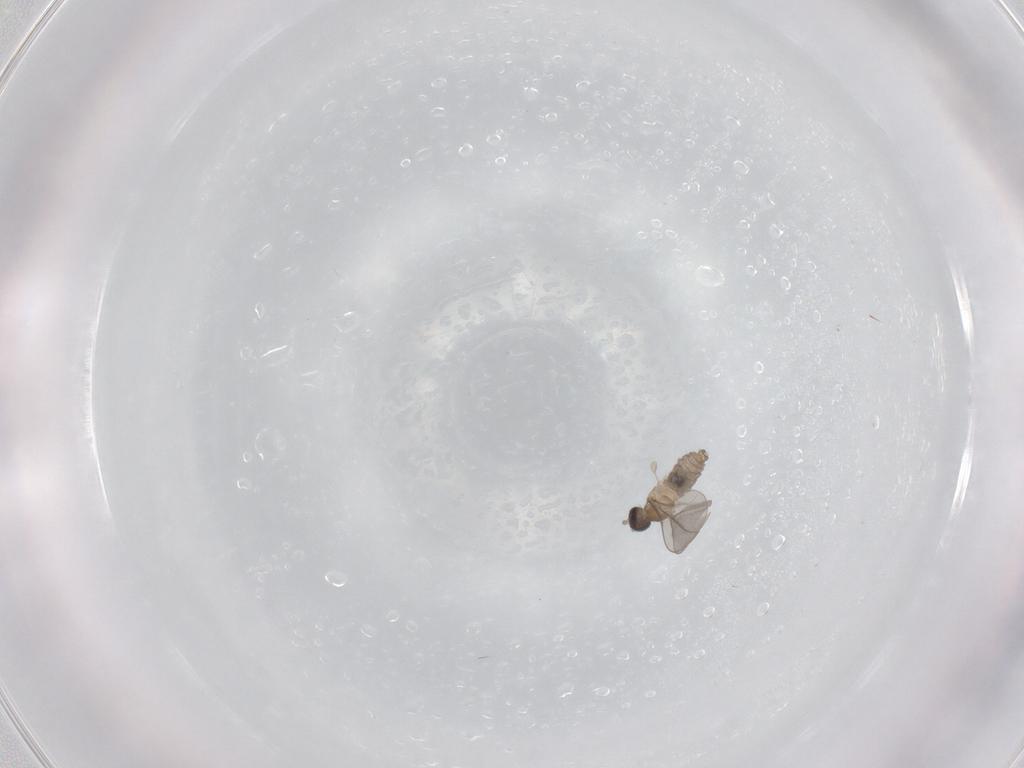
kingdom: Animalia
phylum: Arthropoda
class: Insecta
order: Diptera
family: Cecidomyiidae
